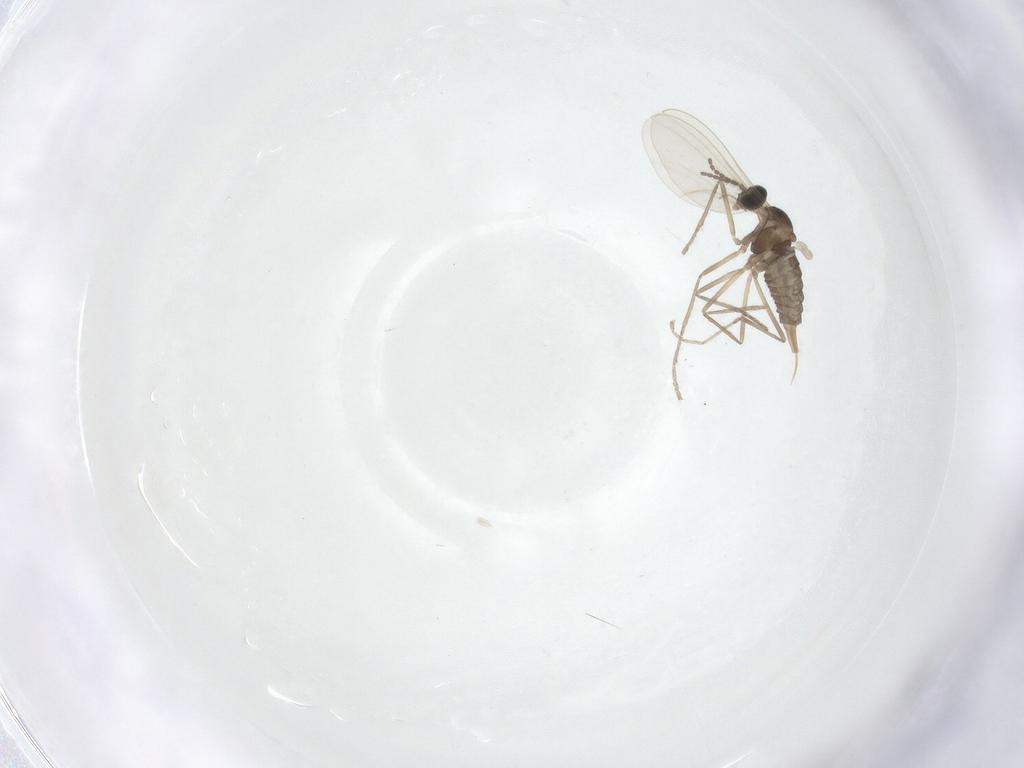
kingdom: Animalia
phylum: Arthropoda
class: Insecta
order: Diptera
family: Cecidomyiidae
